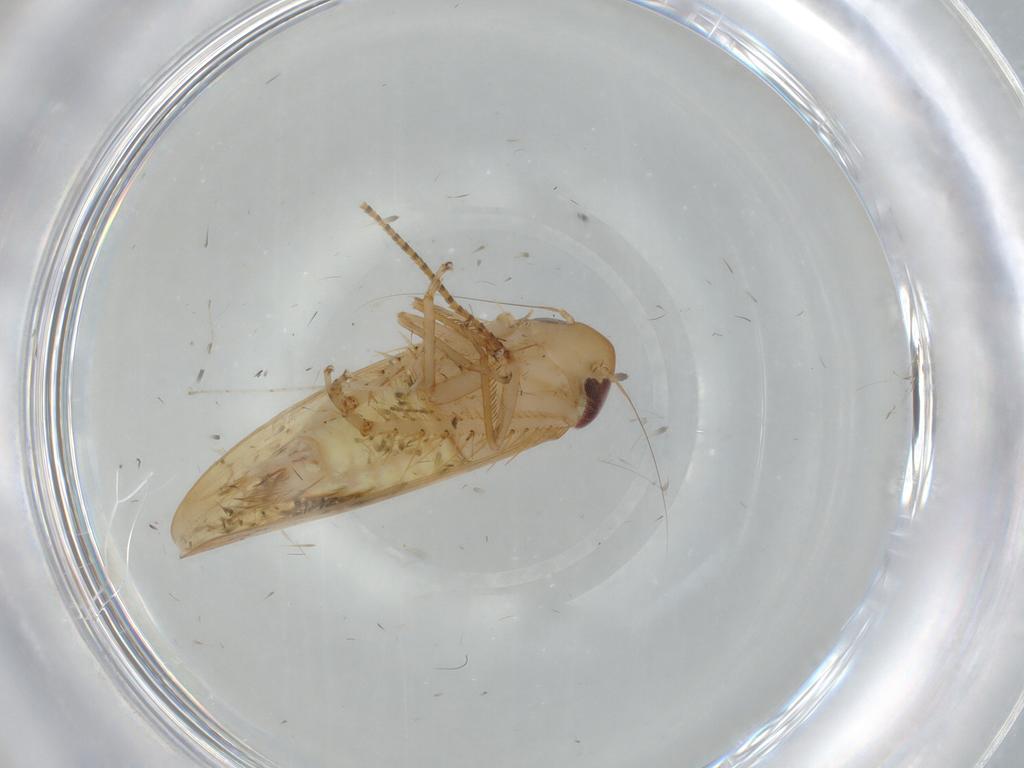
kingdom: Animalia
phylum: Arthropoda
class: Insecta
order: Hemiptera
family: Cicadellidae
